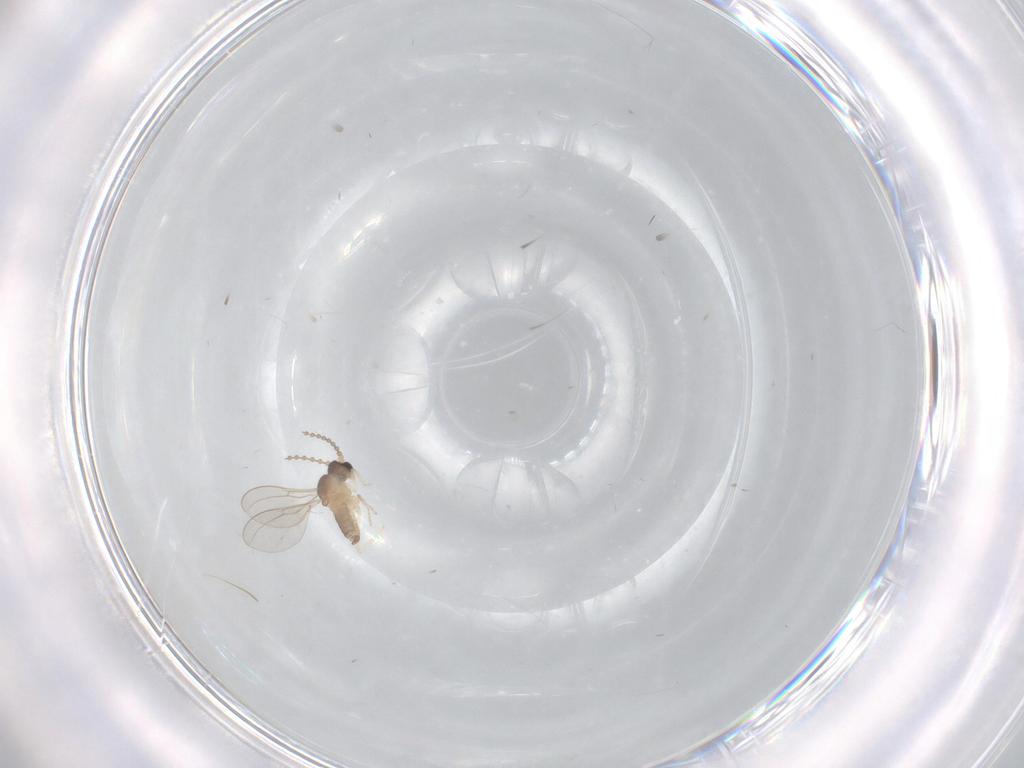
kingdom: Animalia
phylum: Arthropoda
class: Insecta
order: Diptera
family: Cecidomyiidae
